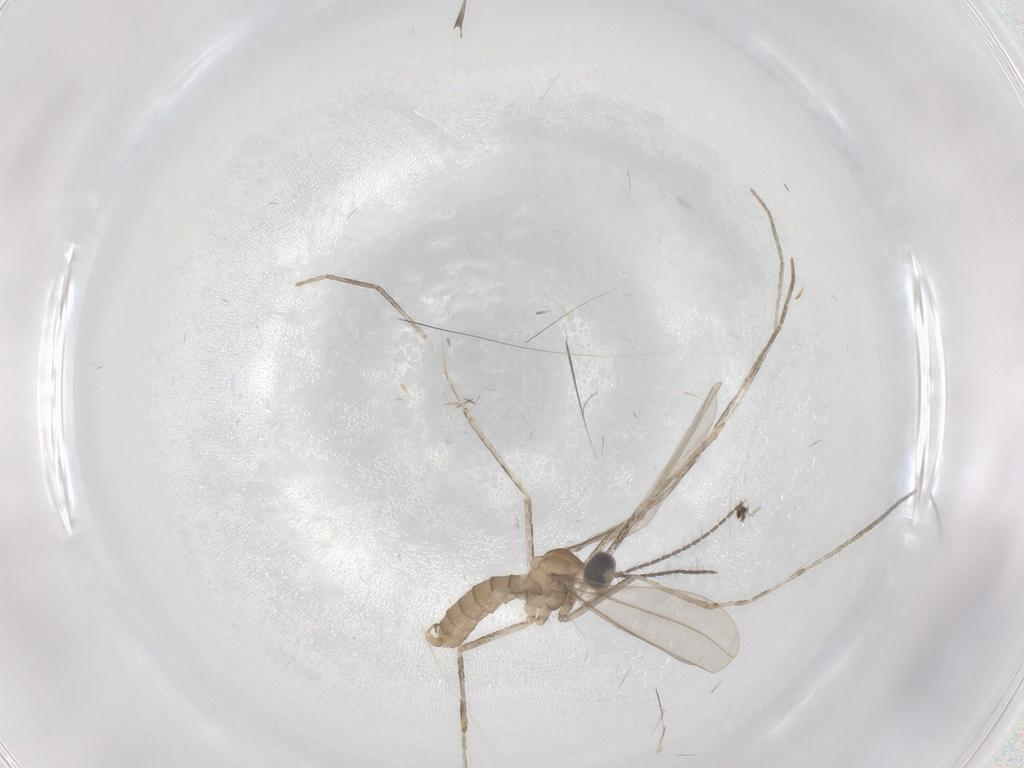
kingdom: Animalia
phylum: Arthropoda
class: Insecta
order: Diptera
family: Cecidomyiidae
